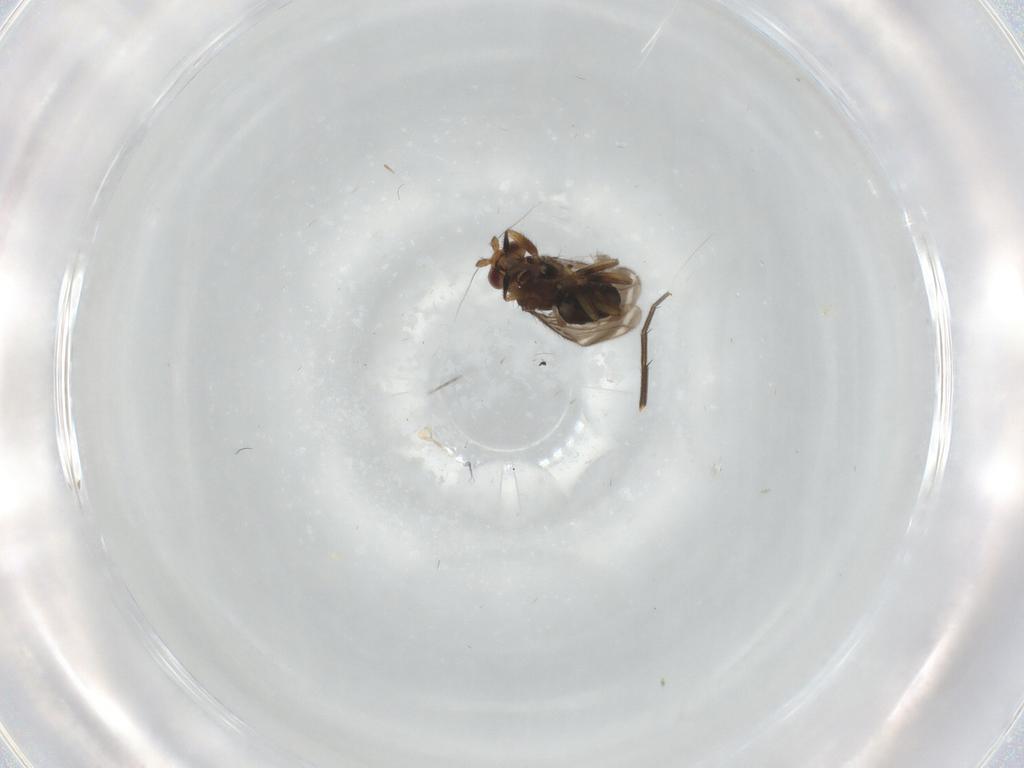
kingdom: Animalia
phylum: Arthropoda
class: Insecta
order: Diptera
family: Sphaeroceridae
